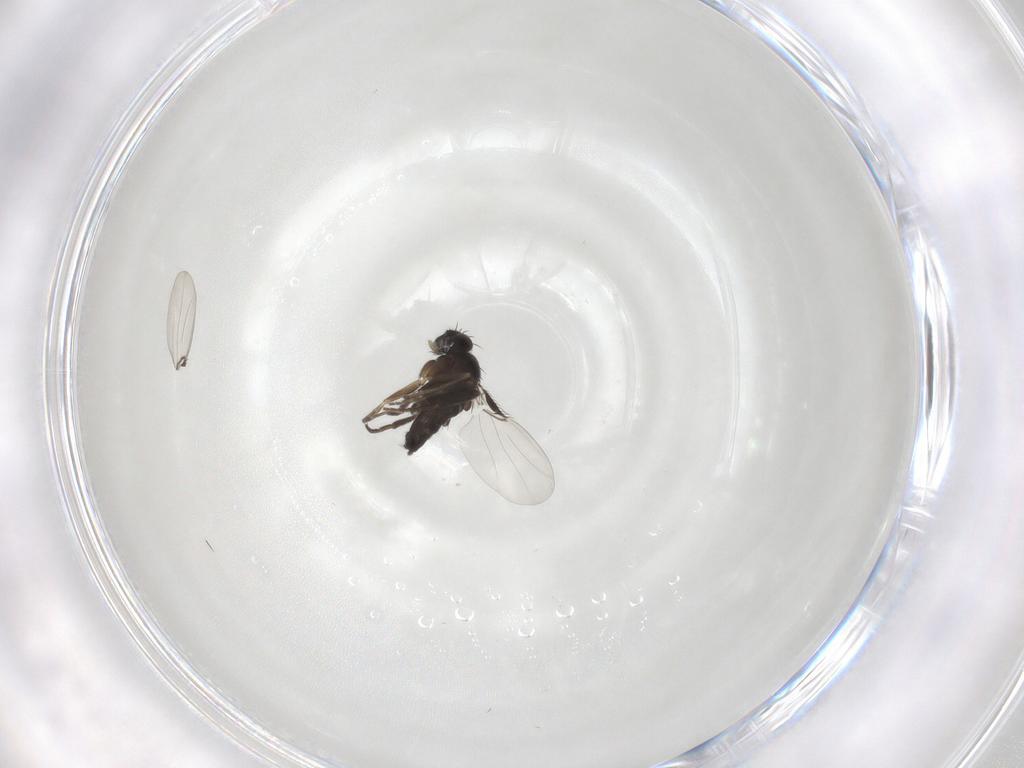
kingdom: Animalia
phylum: Arthropoda
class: Insecta
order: Diptera
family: Phoridae
